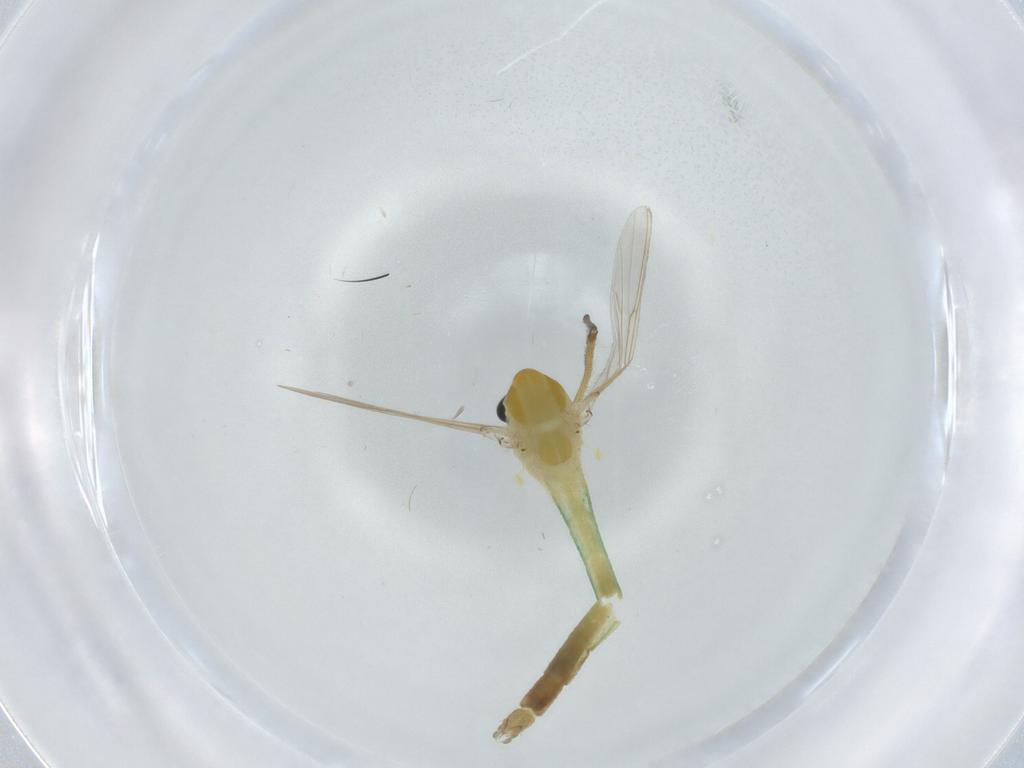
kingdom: Animalia
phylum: Arthropoda
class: Insecta
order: Diptera
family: Chironomidae
